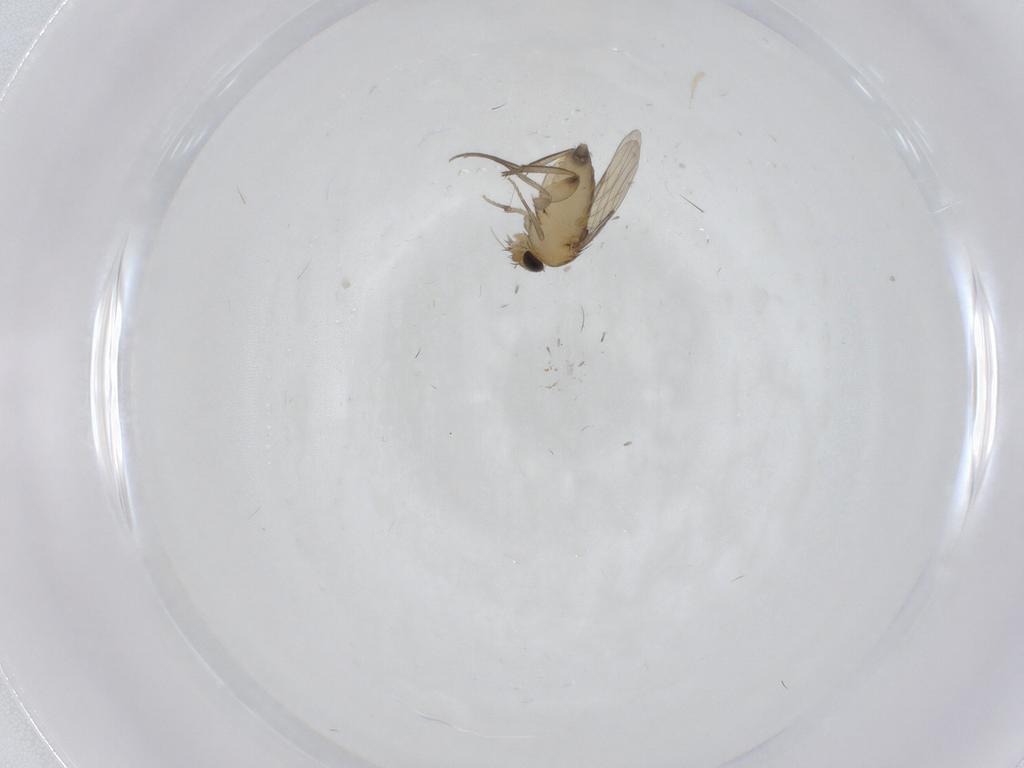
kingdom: Animalia
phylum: Arthropoda
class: Insecta
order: Diptera
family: Phoridae
